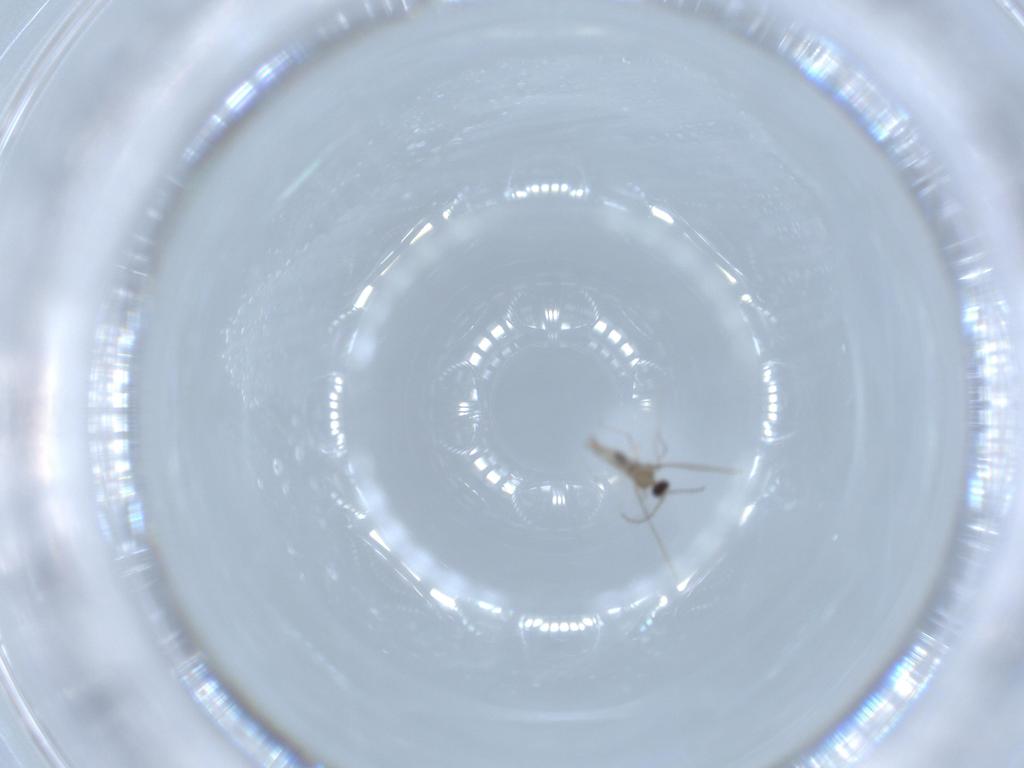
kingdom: Animalia
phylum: Arthropoda
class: Insecta
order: Diptera
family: Cecidomyiidae
